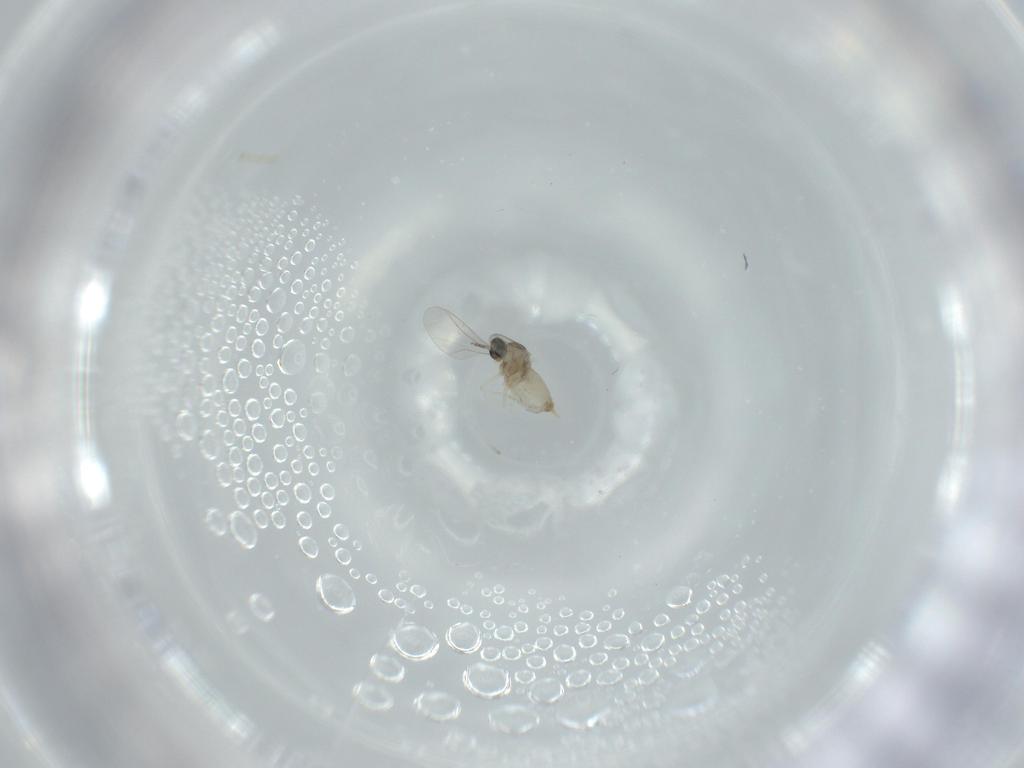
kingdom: Animalia
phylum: Arthropoda
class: Insecta
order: Diptera
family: Cecidomyiidae
